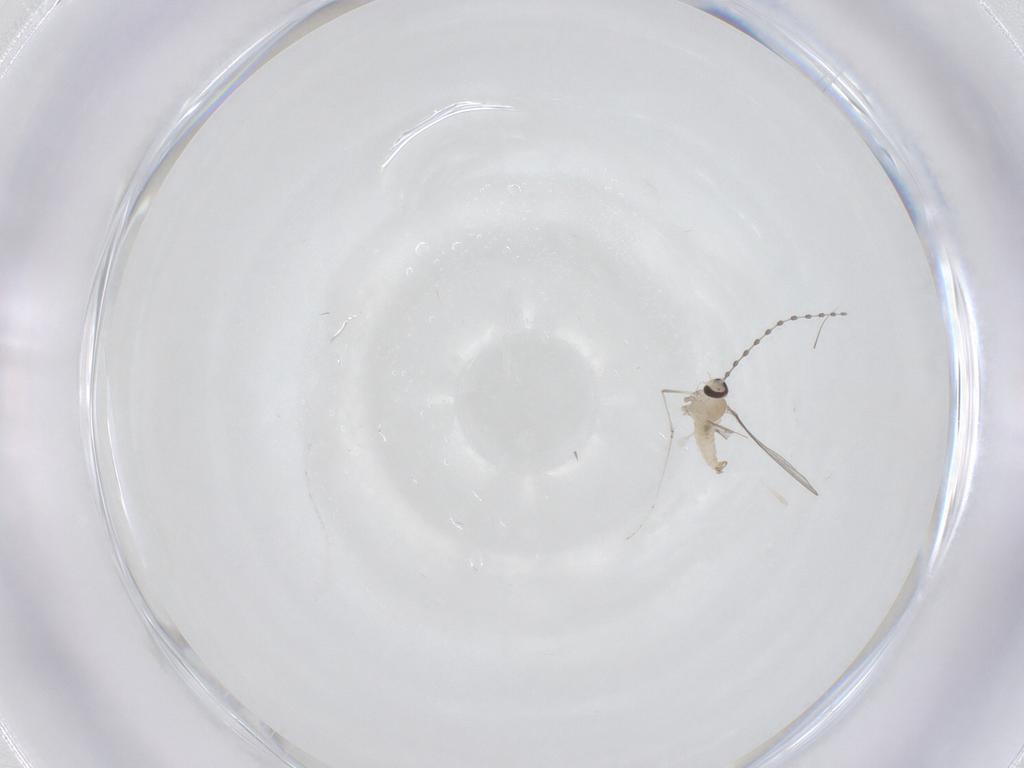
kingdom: Animalia
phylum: Arthropoda
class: Insecta
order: Diptera
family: Cecidomyiidae
